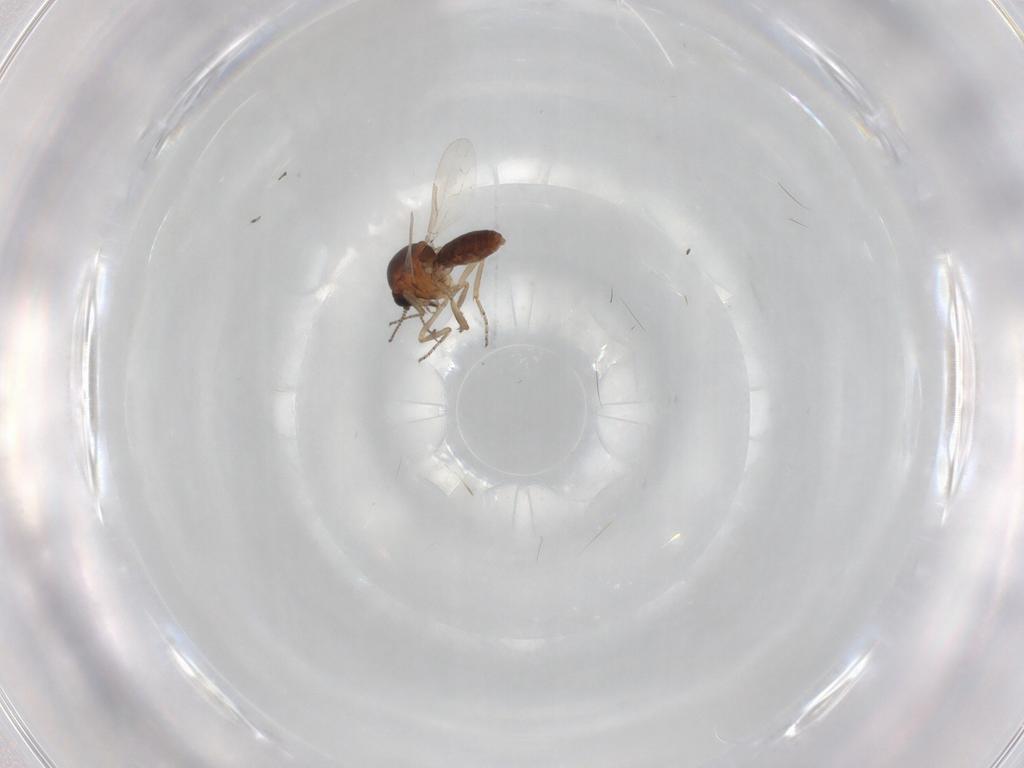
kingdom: Animalia
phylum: Arthropoda
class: Insecta
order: Diptera
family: Ceratopogonidae
